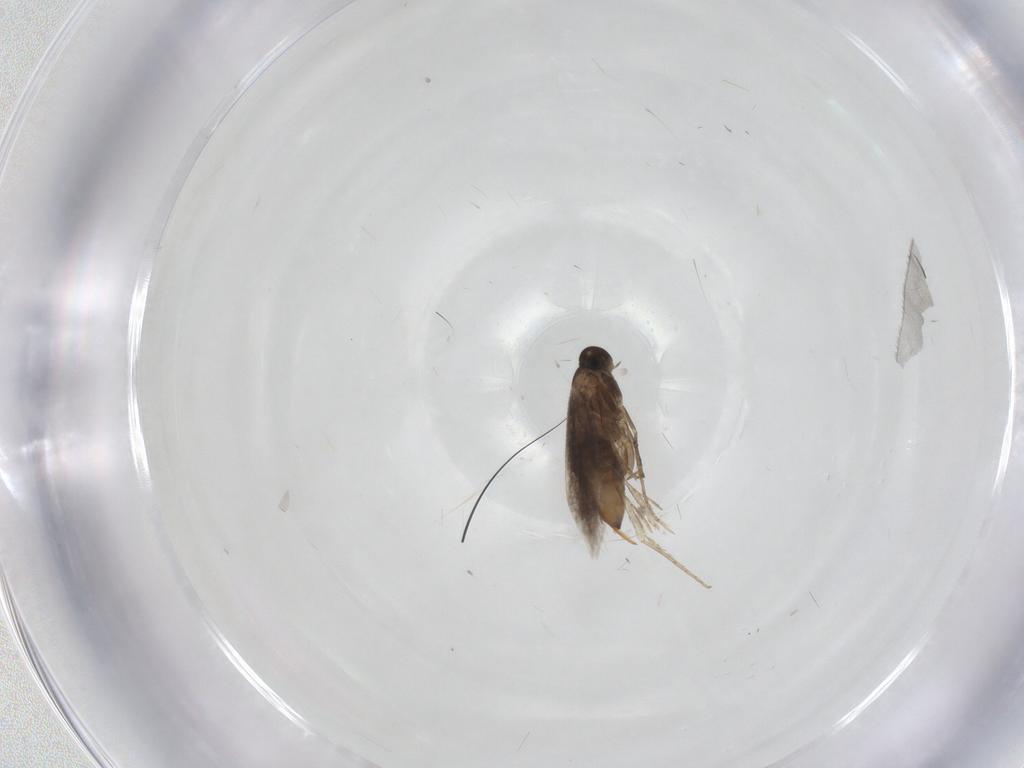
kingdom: Animalia
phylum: Arthropoda
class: Insecta
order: Lepidoptera
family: Heliozelidae
